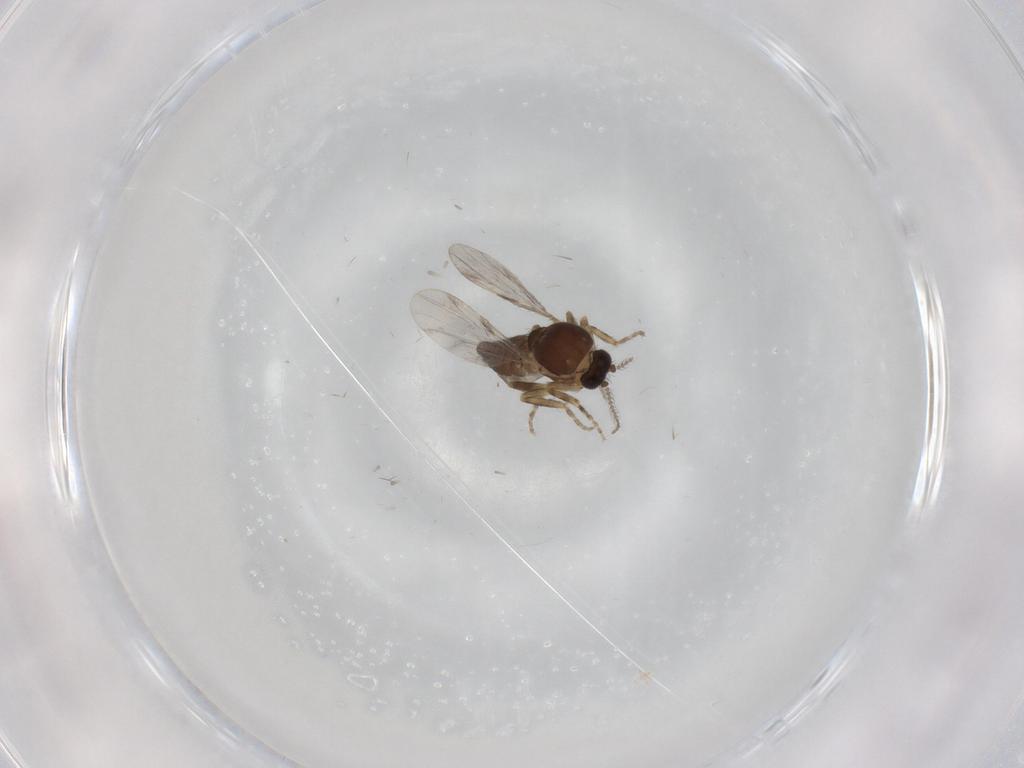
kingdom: Animalia
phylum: Arthropoda
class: Insecta
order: Diptera
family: Ceratopogonidae
